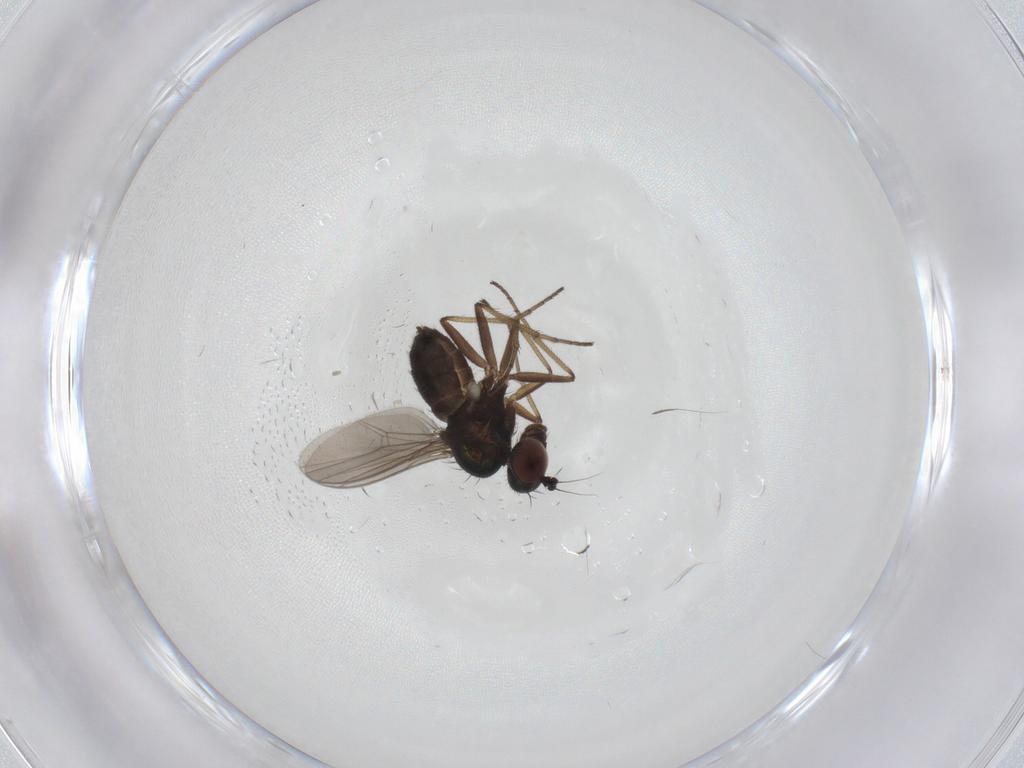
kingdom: Animalia
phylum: Arthropoda
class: Insecta
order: Diptera
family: Dolichopodidae
